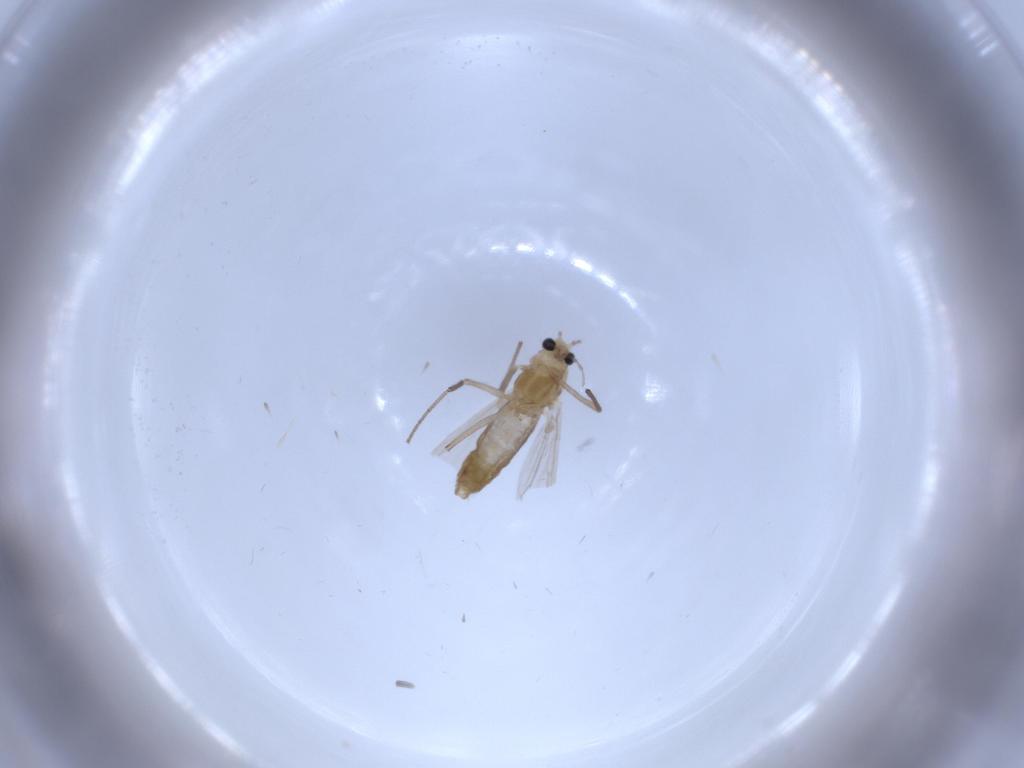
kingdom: Animalia
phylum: Arthropoda
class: Insecta
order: Diptera
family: Chironomidae
